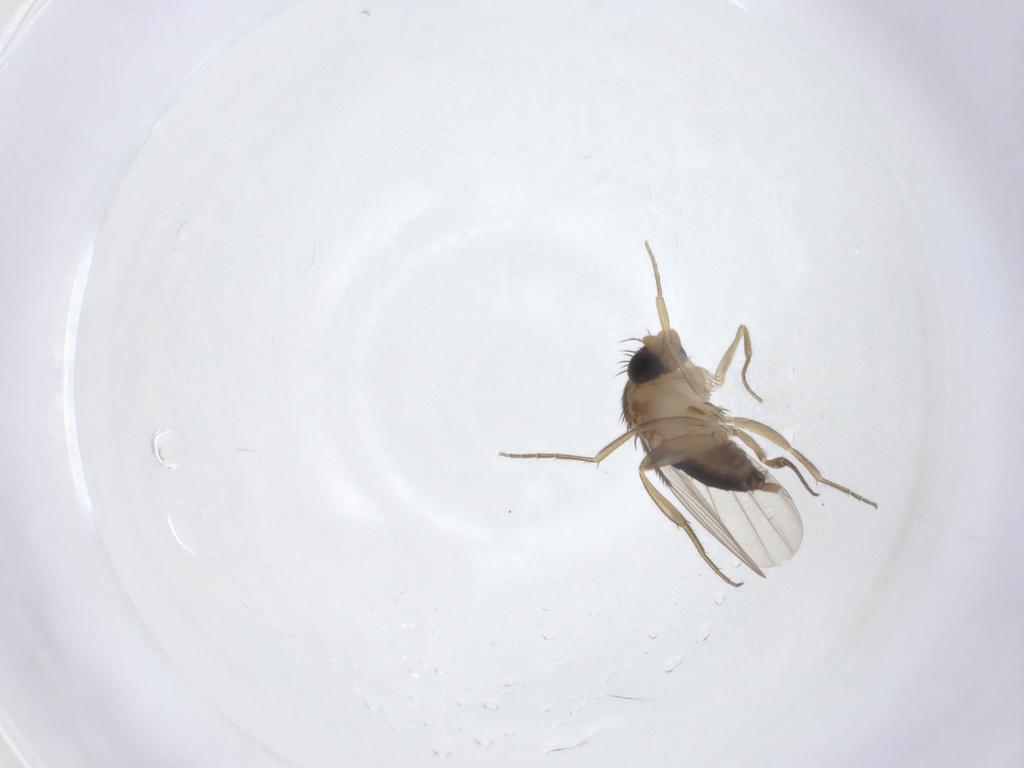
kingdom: Animalia
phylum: Arthropoda
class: Insecta
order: Diptera
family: Phoridae
